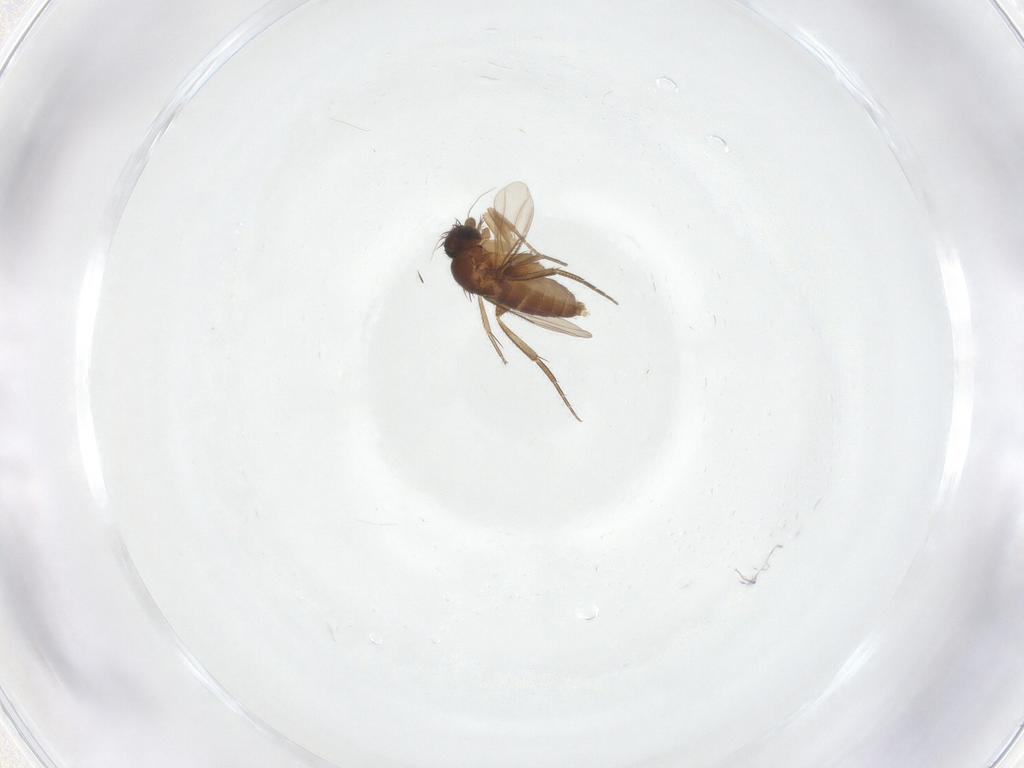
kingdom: Animalia
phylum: Arthropoda
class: Insecta
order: Diptera
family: Phoridae
